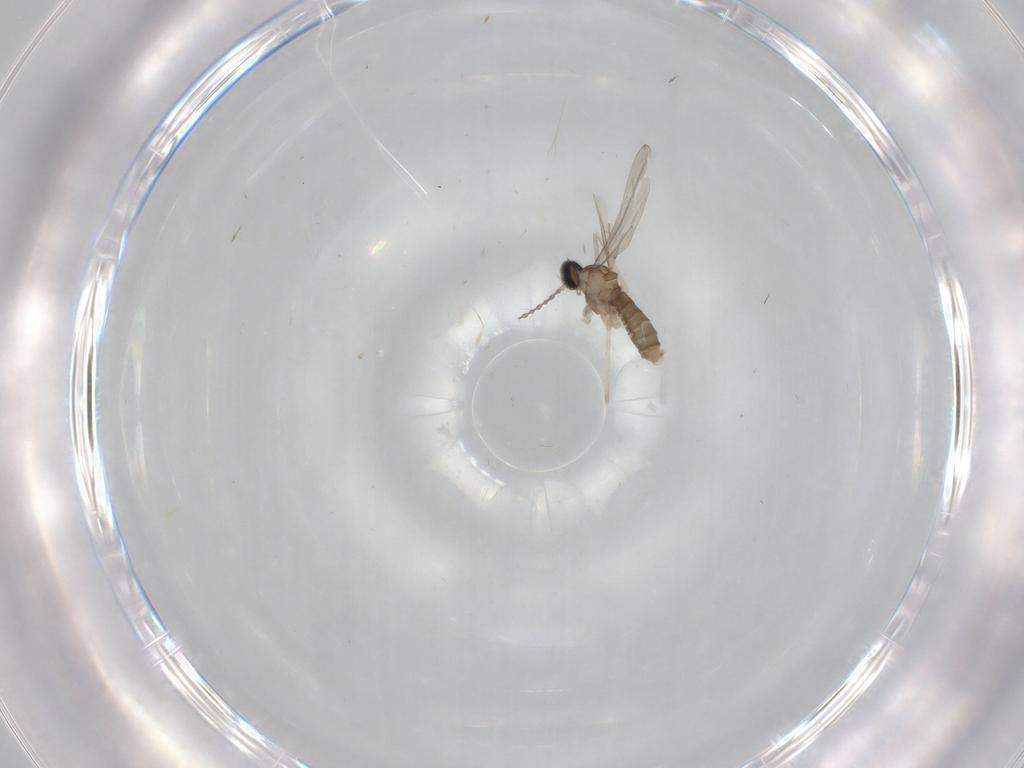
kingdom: Animalia
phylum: Arthropoda
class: Insecta
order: Diptera
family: Cecidomyiidae
